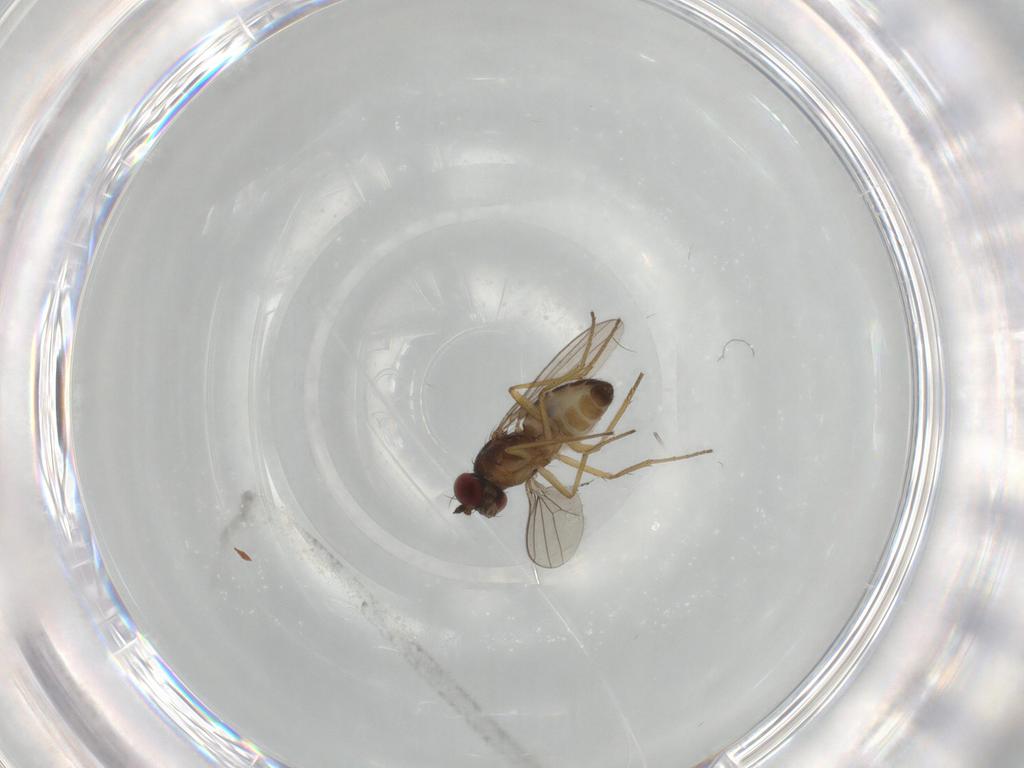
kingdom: Animalia
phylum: Arthropoda
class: Insecta
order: Diptera
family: Dolichopodidae
